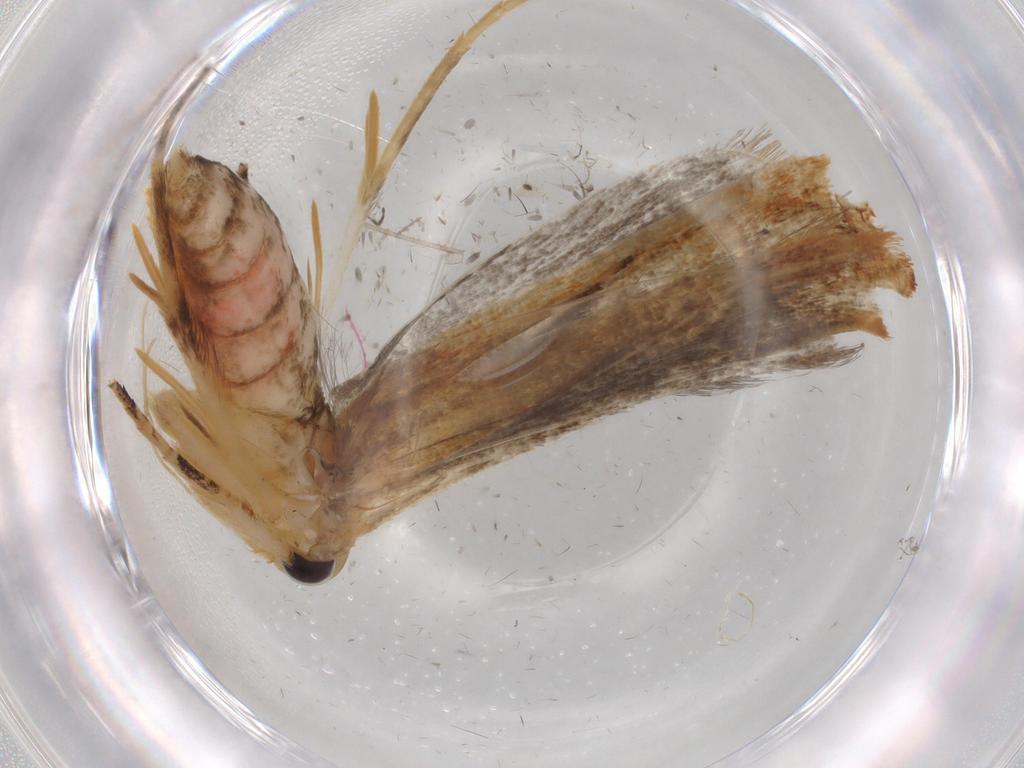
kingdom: Animalia
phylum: Arthropoda
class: Insecta
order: Lepidoptera
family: Gelechiidae
